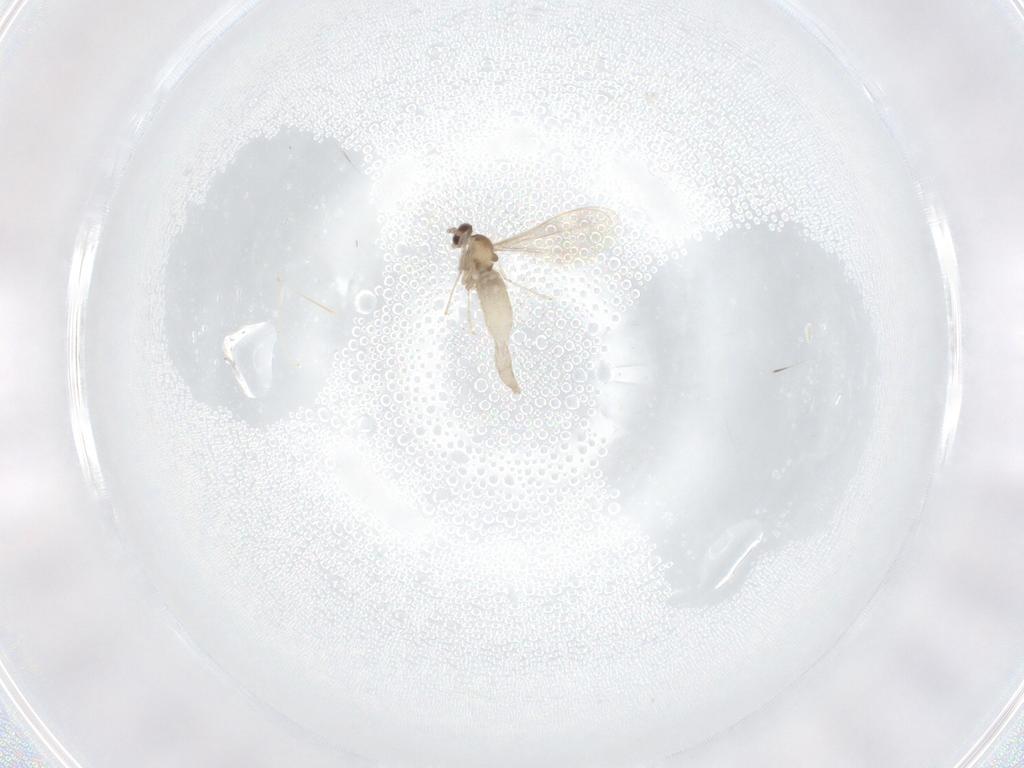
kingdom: Animalia
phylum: Arthropoda
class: Insecta
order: Diptera
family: Cecidomyiidae
